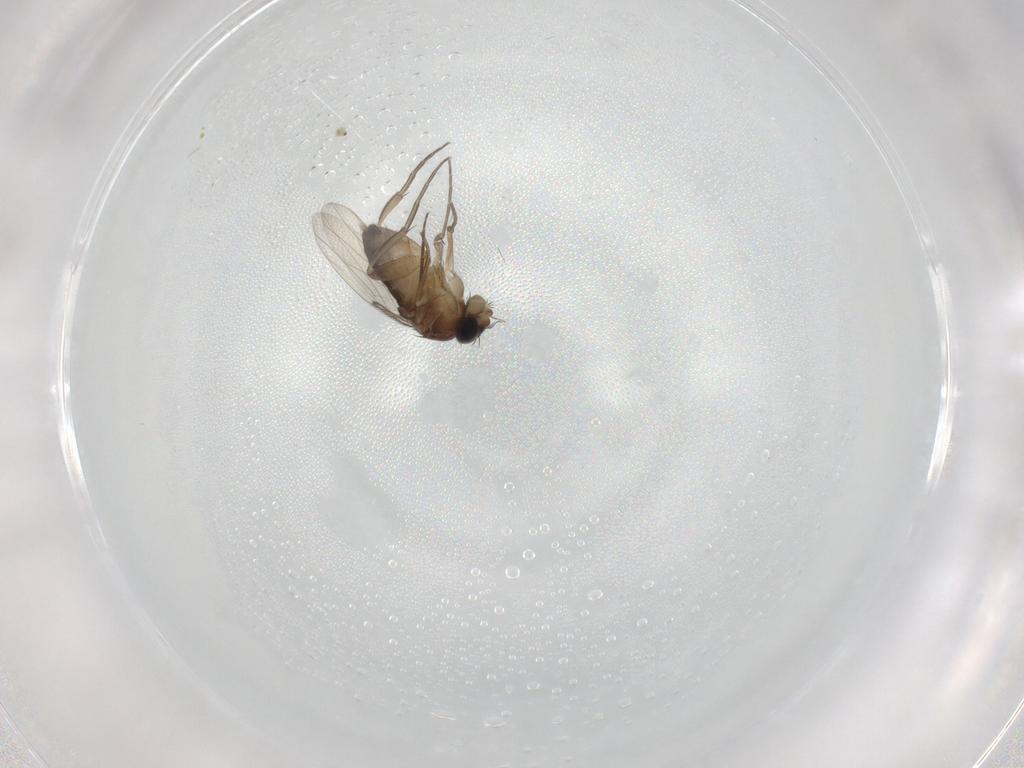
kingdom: Animalia
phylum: Arthropoda
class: Insecta
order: Diptera
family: Phoridae
